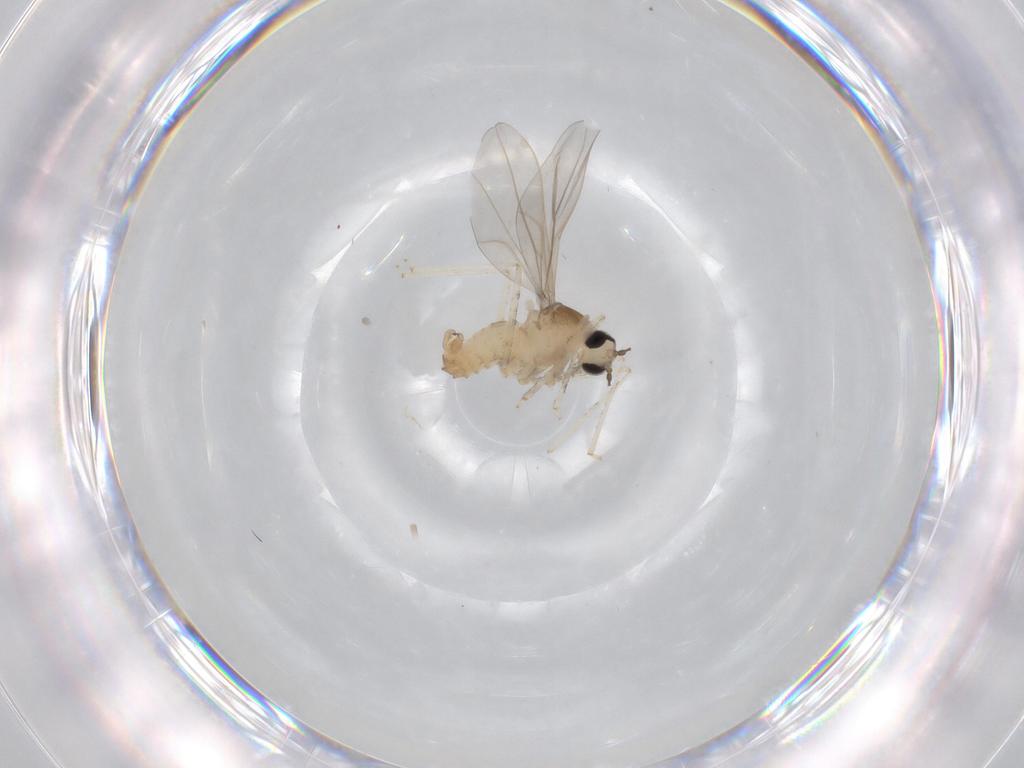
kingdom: Animalia
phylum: Arthropoda
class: Insecta
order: Diptera
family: Cecidomyiidae
